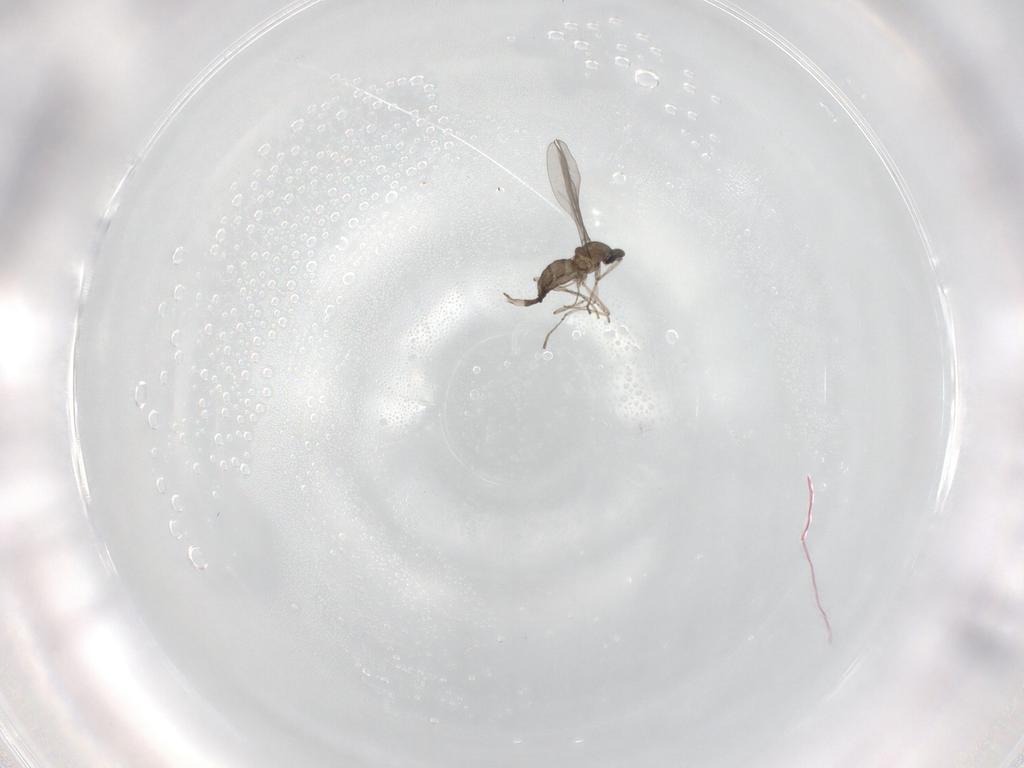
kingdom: Animalia
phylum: Arthropoda
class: Insecta
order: Diptera
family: Cecidomyiidae
